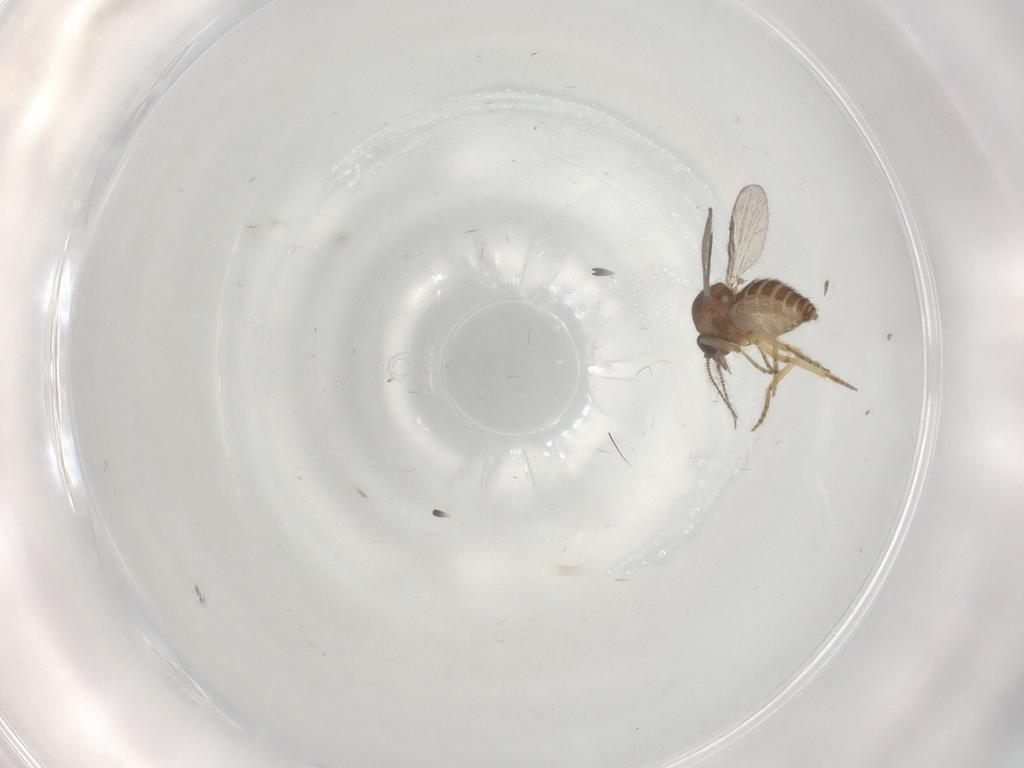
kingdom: Animalia
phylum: Arthropoda
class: Insecta
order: Diptera
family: Ceratopogonidae
